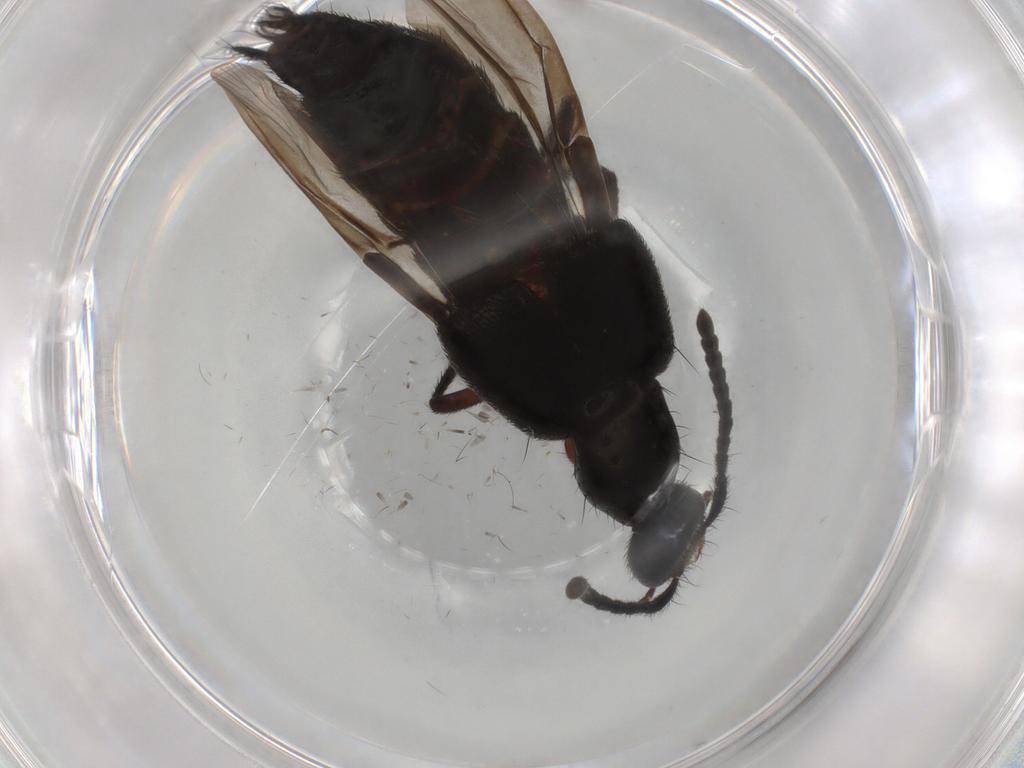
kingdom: Animalia
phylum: Arthropoda
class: Insecta
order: Coleoptera
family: Staphylinidae
